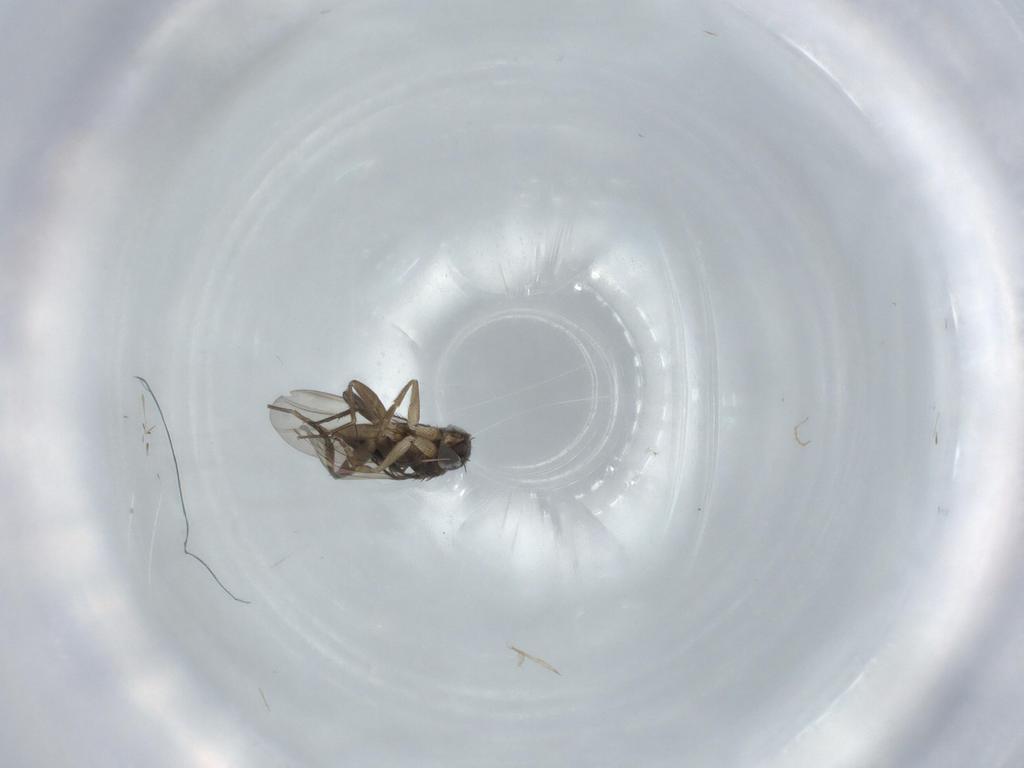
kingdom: Animalia
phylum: Arthropoda
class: Insecta
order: Diptera
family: Phoridae
